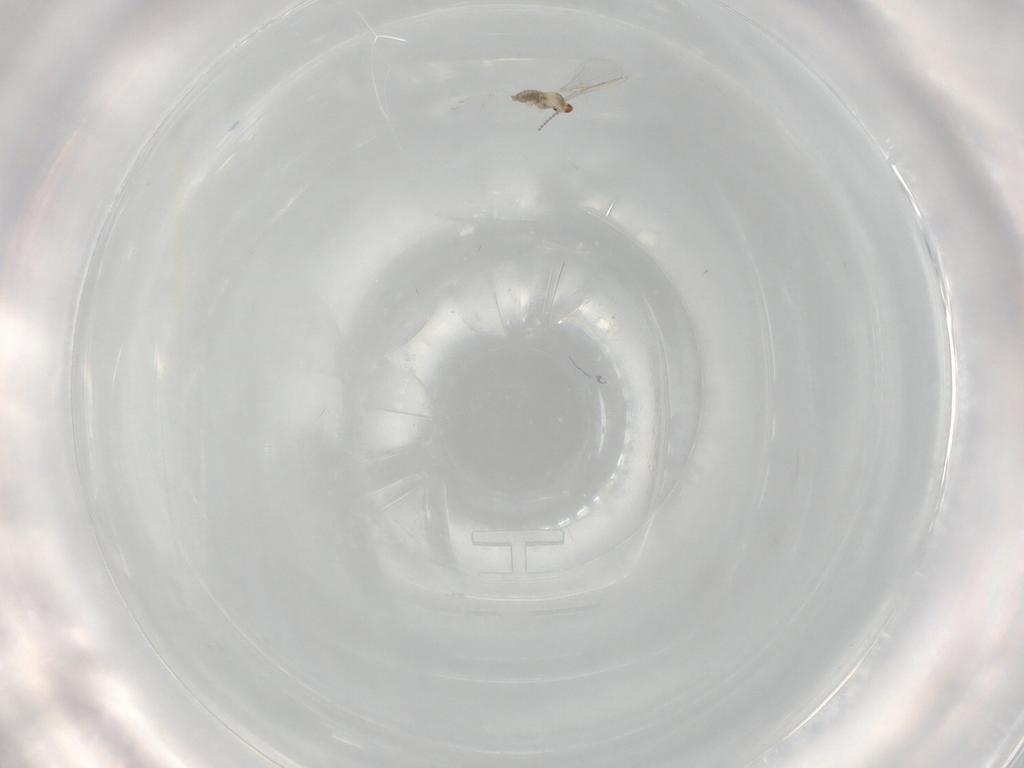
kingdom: Animalia
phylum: Arthropoda
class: Insecta
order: Diptera
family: Cecidomyiidae
